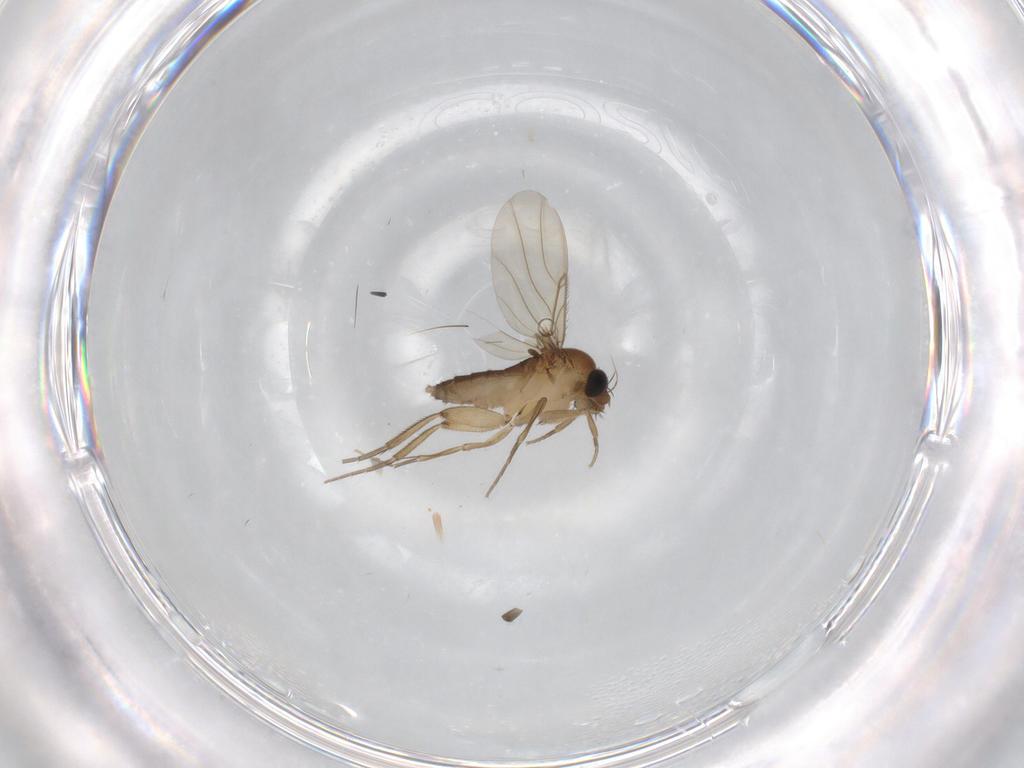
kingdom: Animalia
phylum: Arthropoda
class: Insecta
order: Diptera
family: Phoridae
